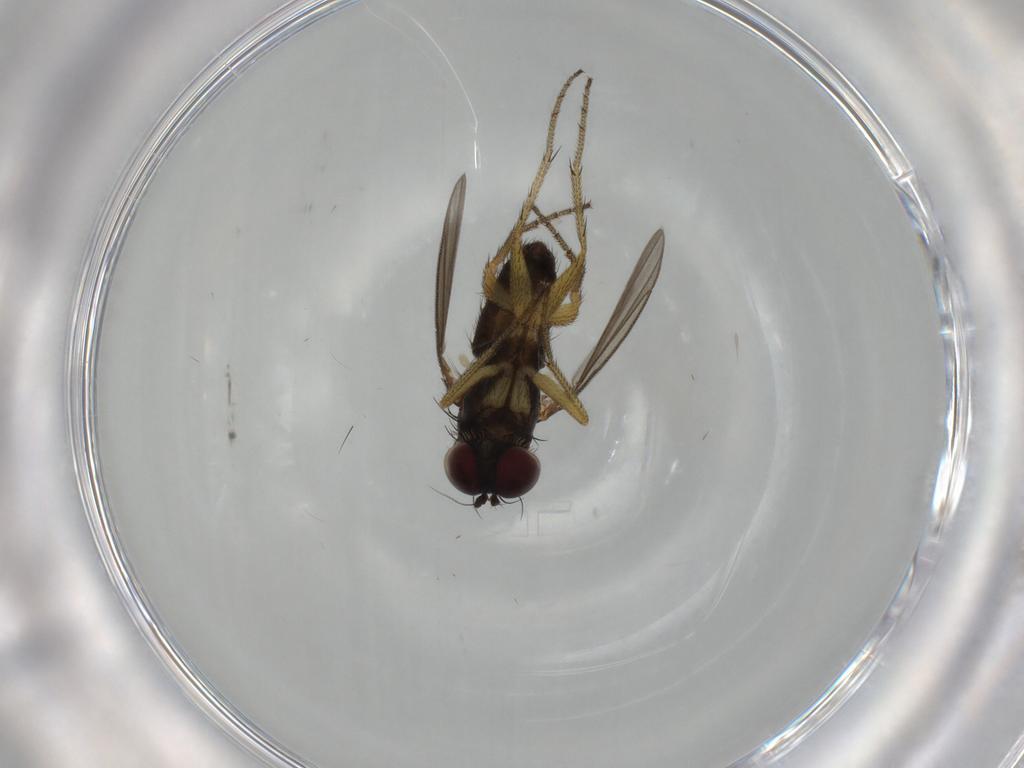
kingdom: Animalia
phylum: Arthropoda
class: Insecta
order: Diptera
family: Dolichopodidae
